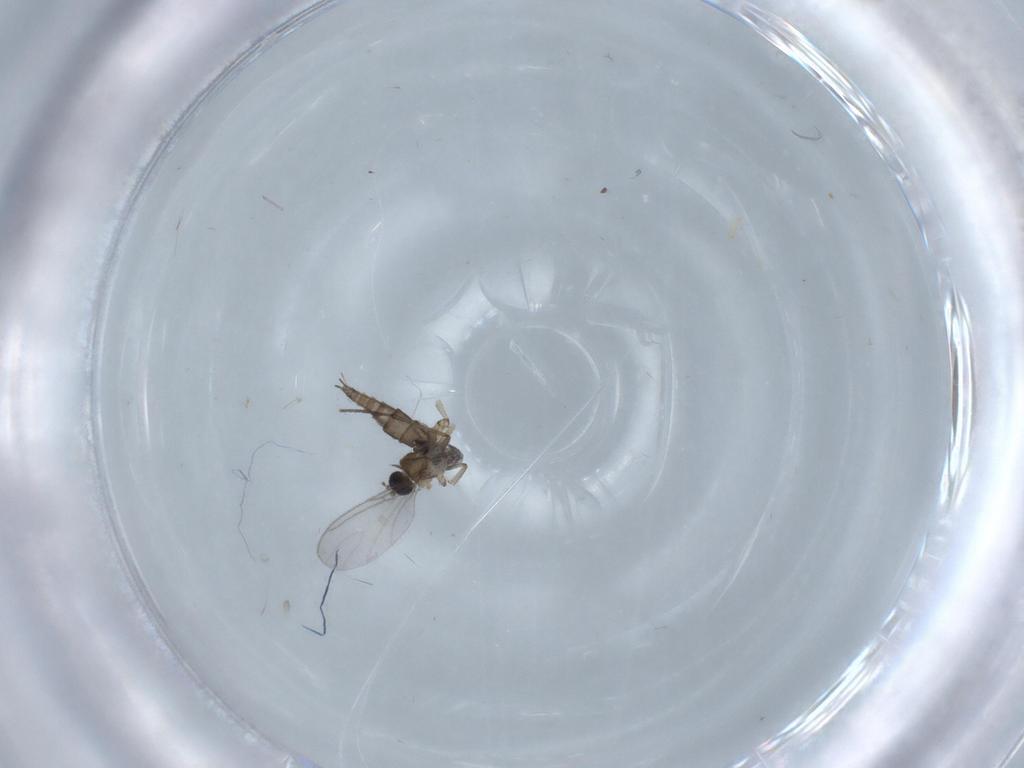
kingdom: Animalia
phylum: Arthropoda
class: Insecta
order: Diptera
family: Sciaridae
